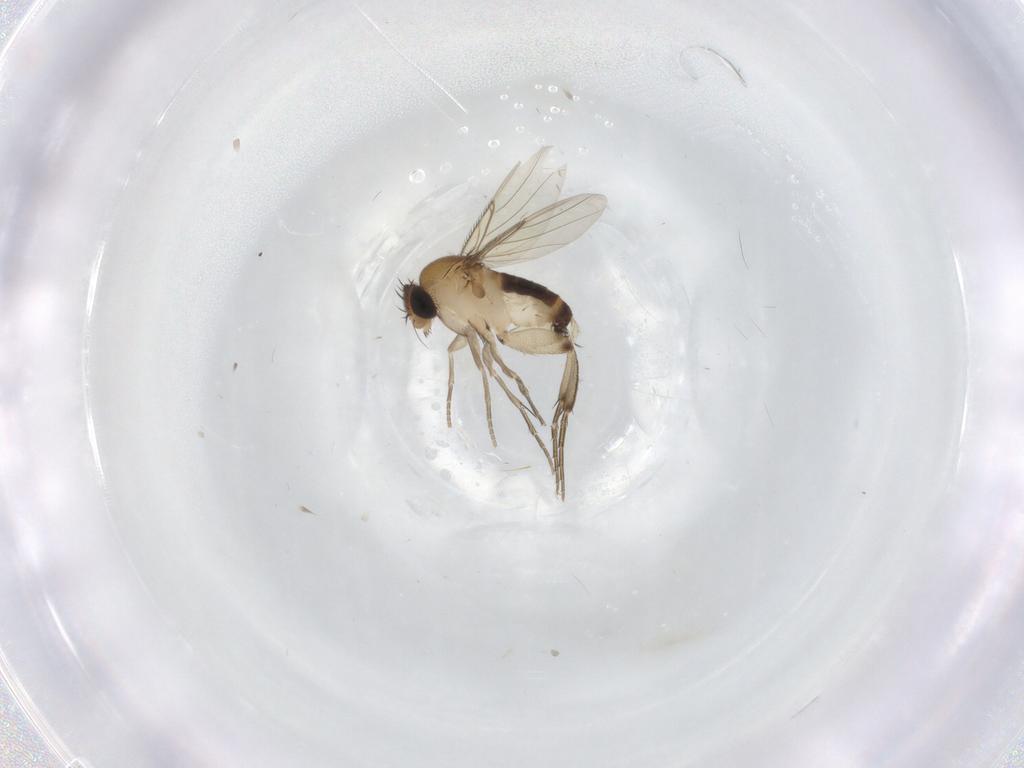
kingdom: Animalia
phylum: Arthropoda
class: Insecta
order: Diptera
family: Phoridae
